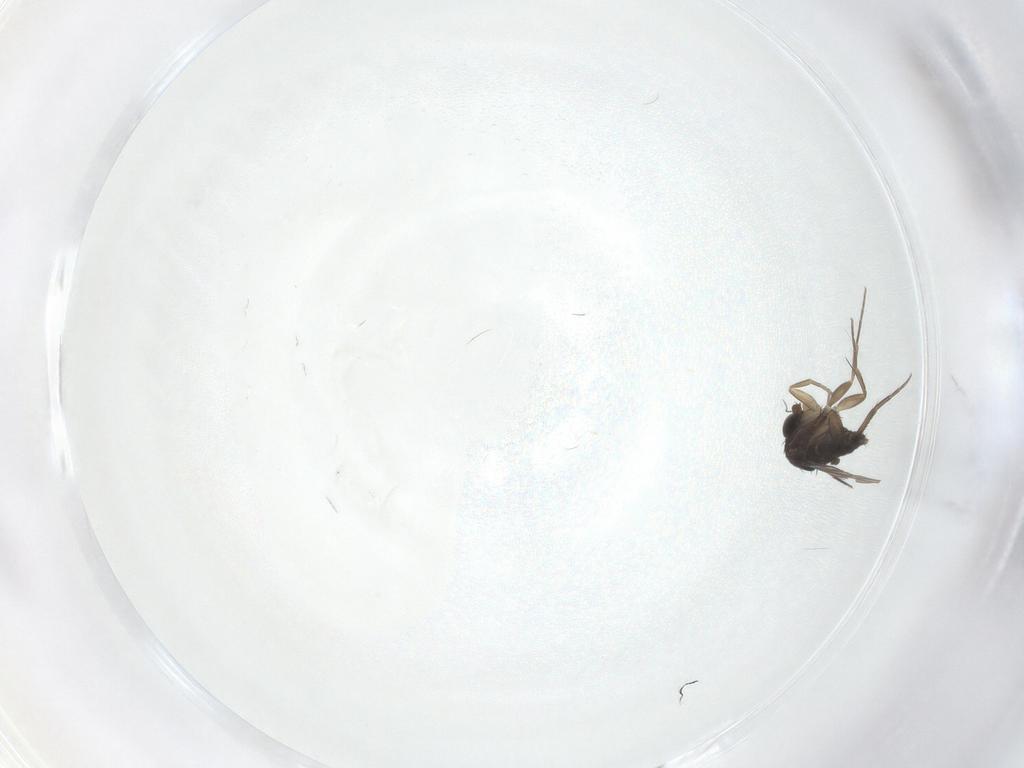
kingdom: Animalia
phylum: Arthropoda
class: Insecta
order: Diptera
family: Phoridae
